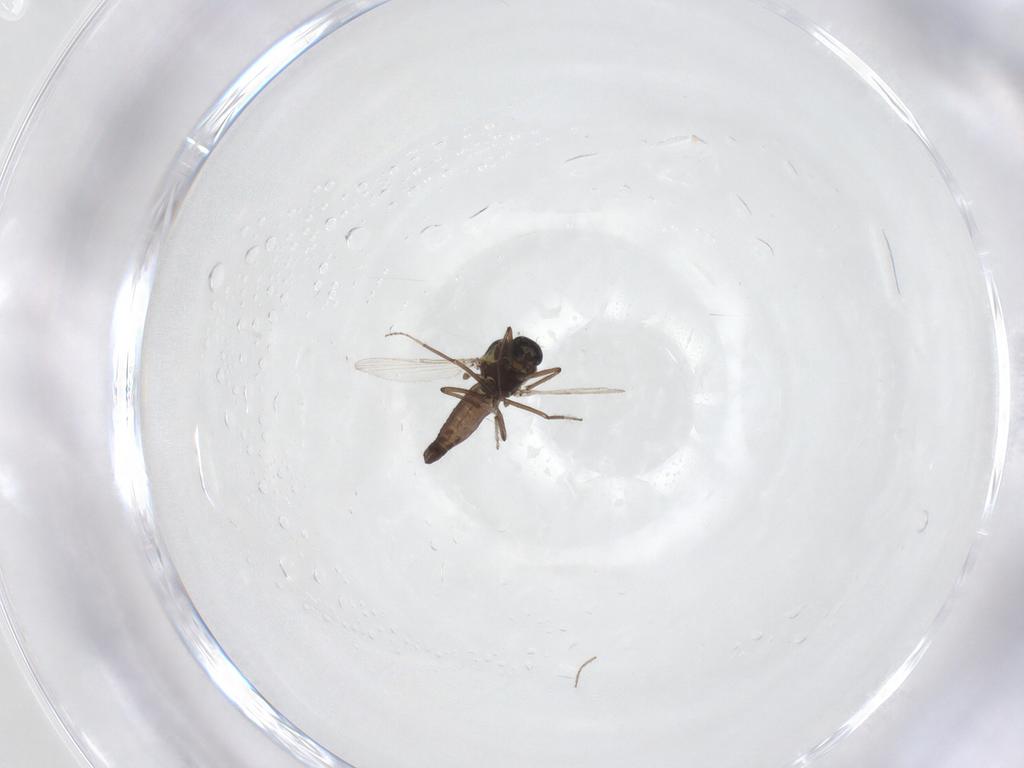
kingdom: Animalia
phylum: Arthropoda
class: Insecta
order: Diptera
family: Ceratopogonidae
